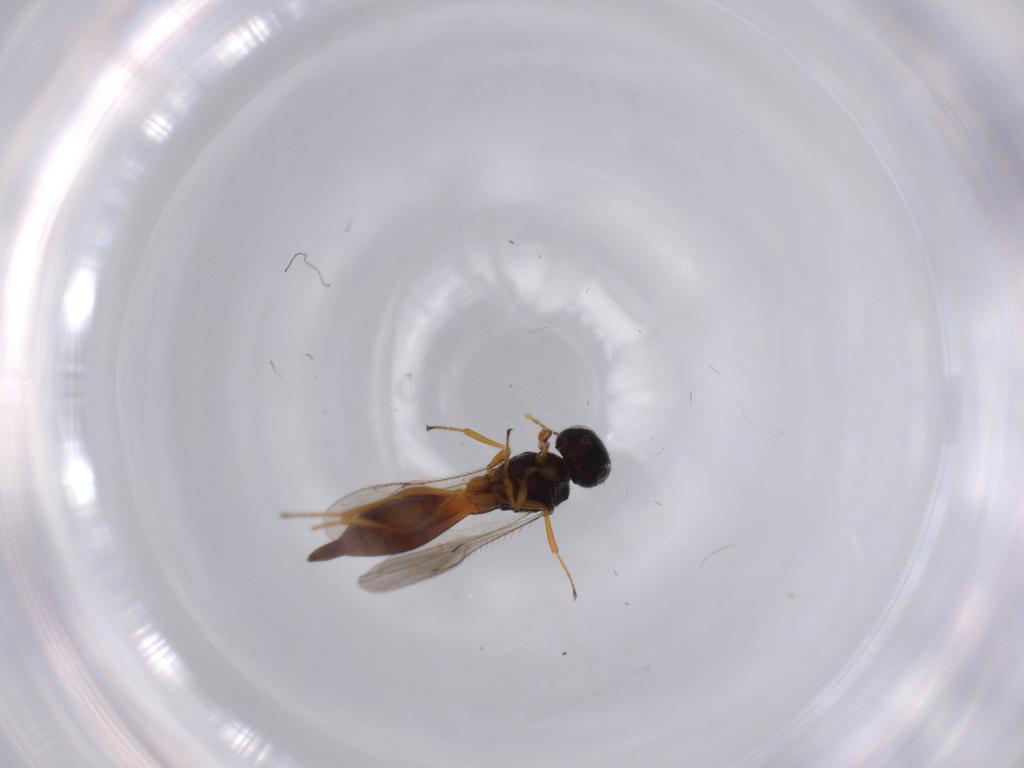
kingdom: Animalia
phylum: Arthropoda
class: Insecta
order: Hymenoptera
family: Scelionidae
